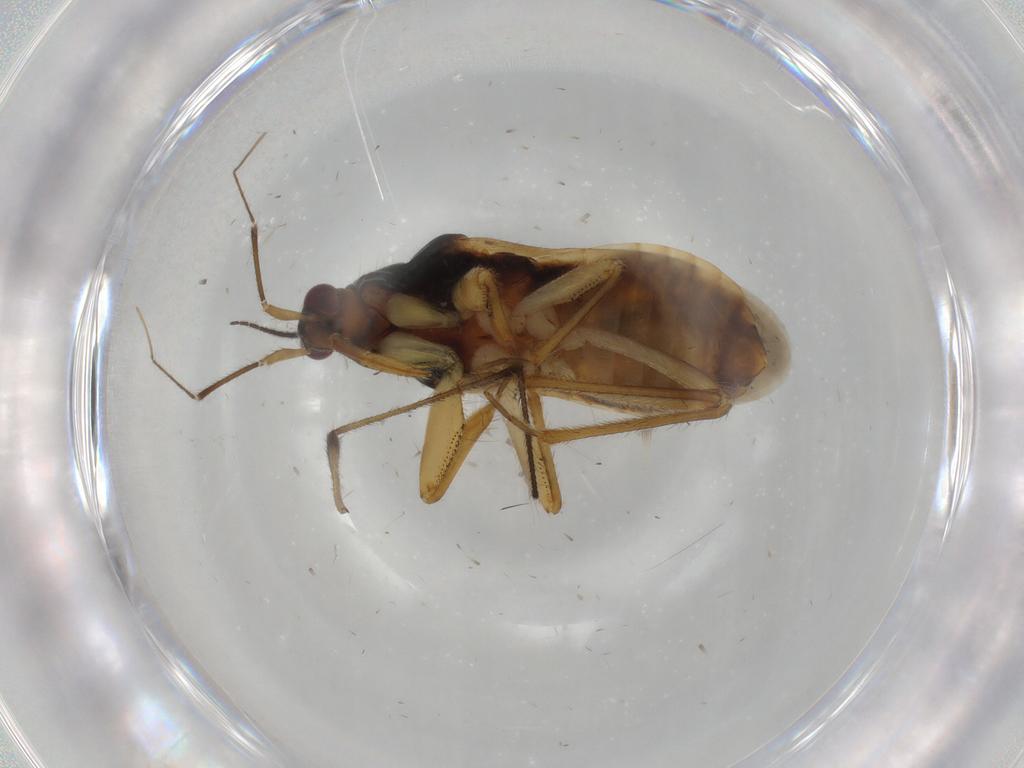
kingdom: Animalia
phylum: Arthropoda
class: Insecta
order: Hemiptera
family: Nabidae
